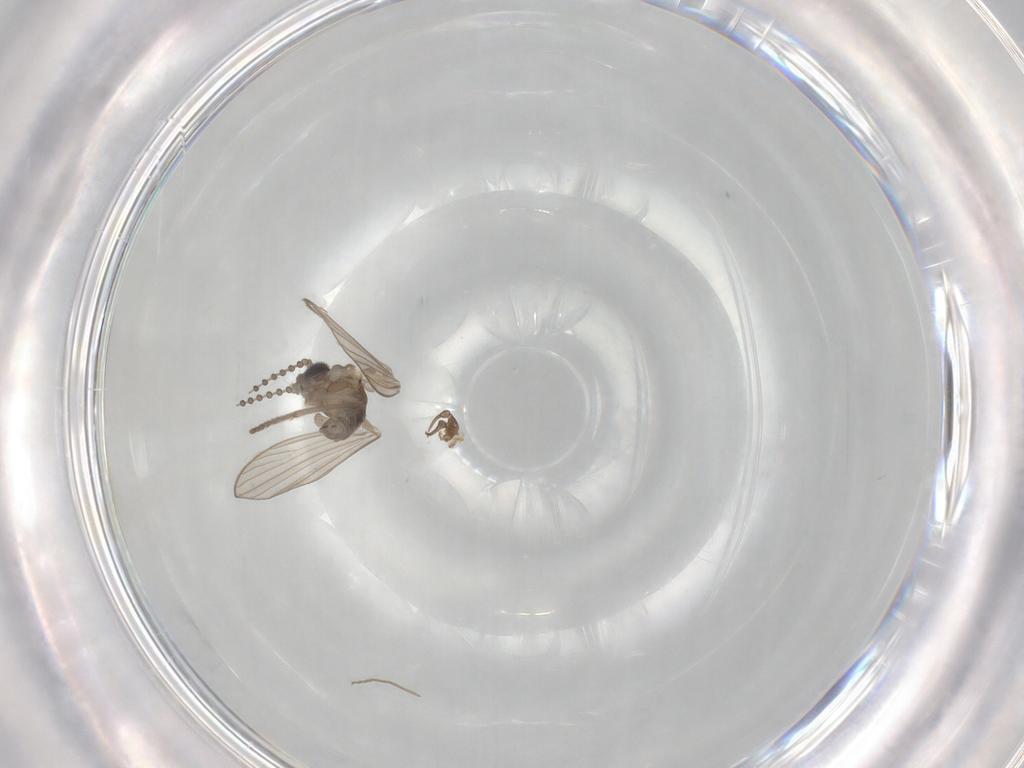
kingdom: Animalia
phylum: Arthropoda
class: Insecta
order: Diptera
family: Psychodidae
